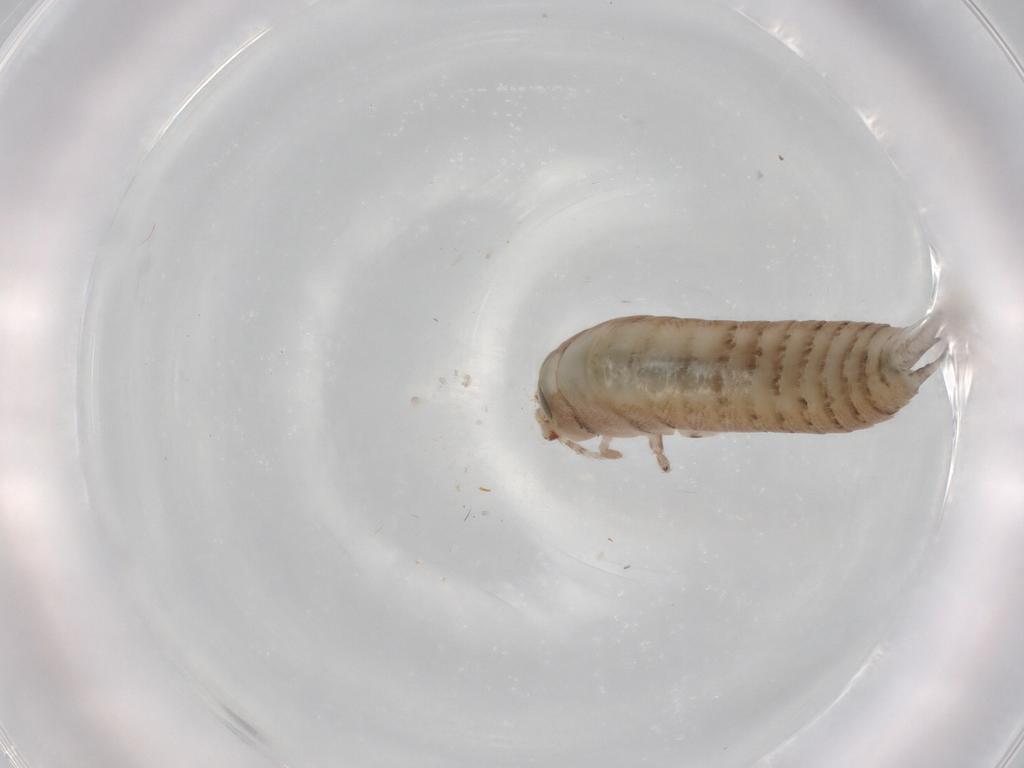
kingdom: Animalia
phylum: Arthropoda
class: Insecta
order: Archaeognatha
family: Machilidae
